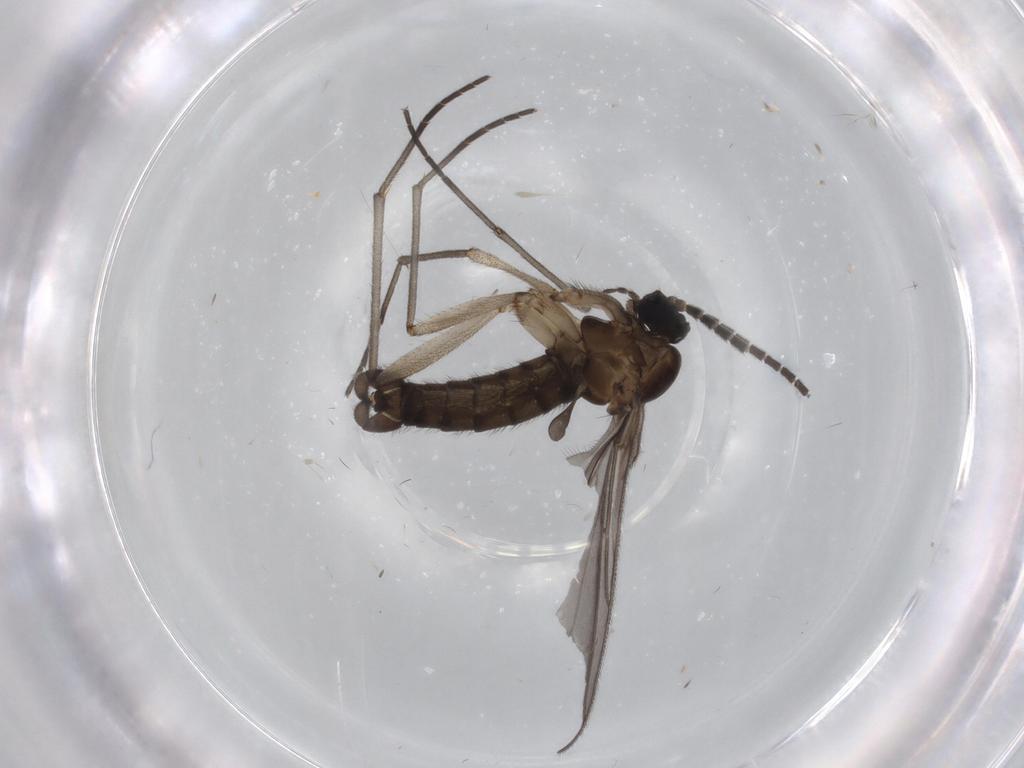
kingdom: Animalia
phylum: Arthropoda
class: Insecta
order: Diptera
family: Sciaridae
